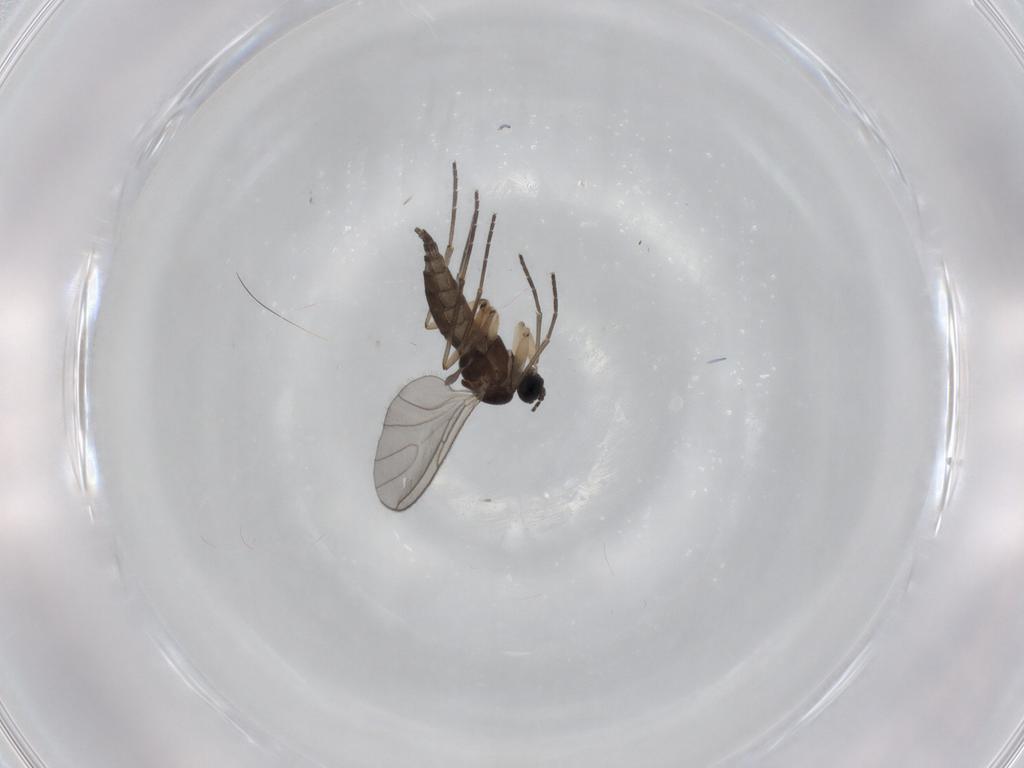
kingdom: Animalia
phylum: Arthropoda
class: Insecta
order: Diptera
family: Sciaridae
